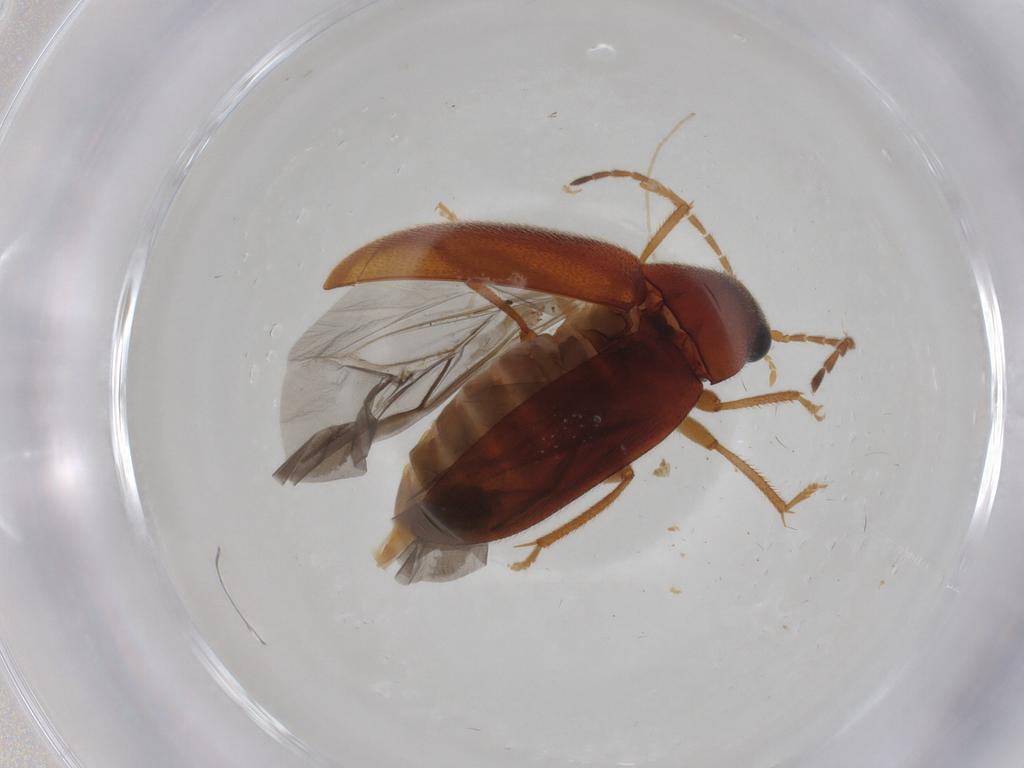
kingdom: Animalia
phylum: Arthropoda
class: Insecta
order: Coleoptera
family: Ptilodactylidae
